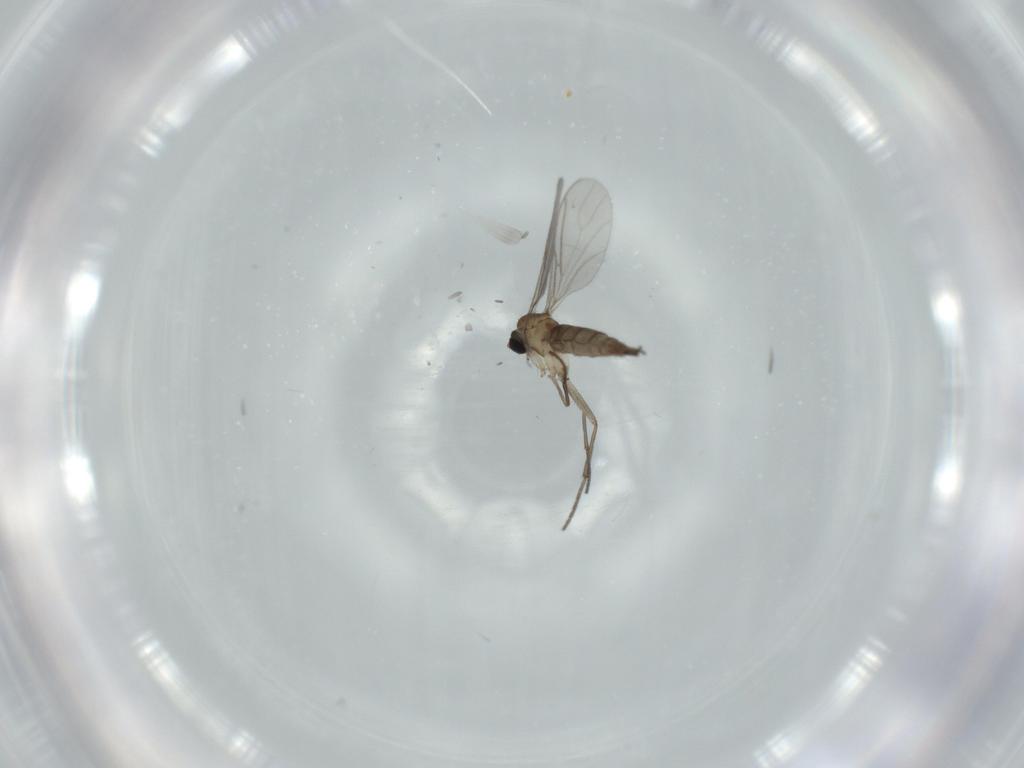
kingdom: Animalia
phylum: Arthropoda
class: Insecta
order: Diptera
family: Sciaridae
